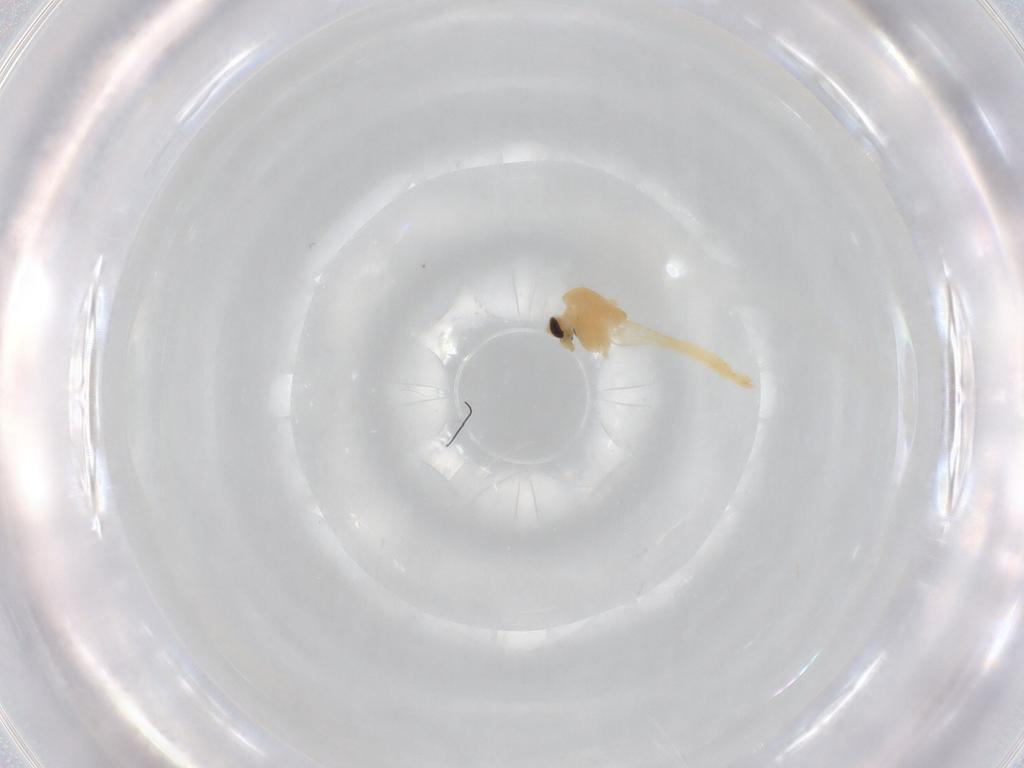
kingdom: Animalia
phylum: Arthropoda
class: Insecta
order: Diptera
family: Chironomidae
